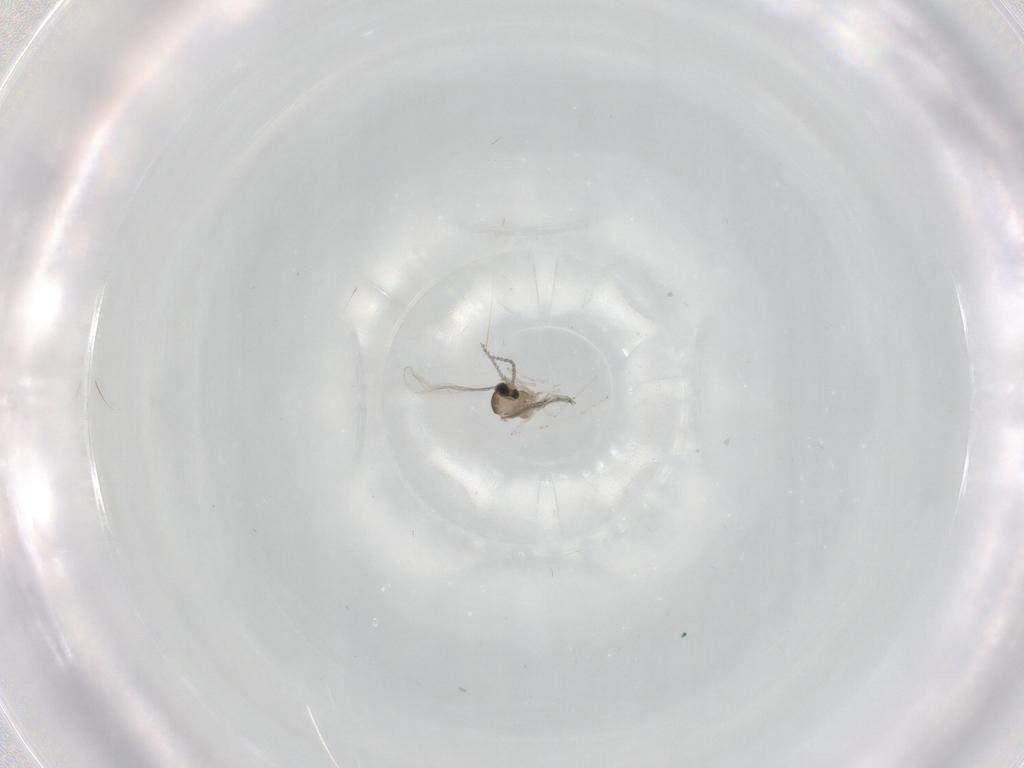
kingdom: Animalia
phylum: Arthropoda
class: Insecta
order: Diptera
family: Cecidomyiidae
